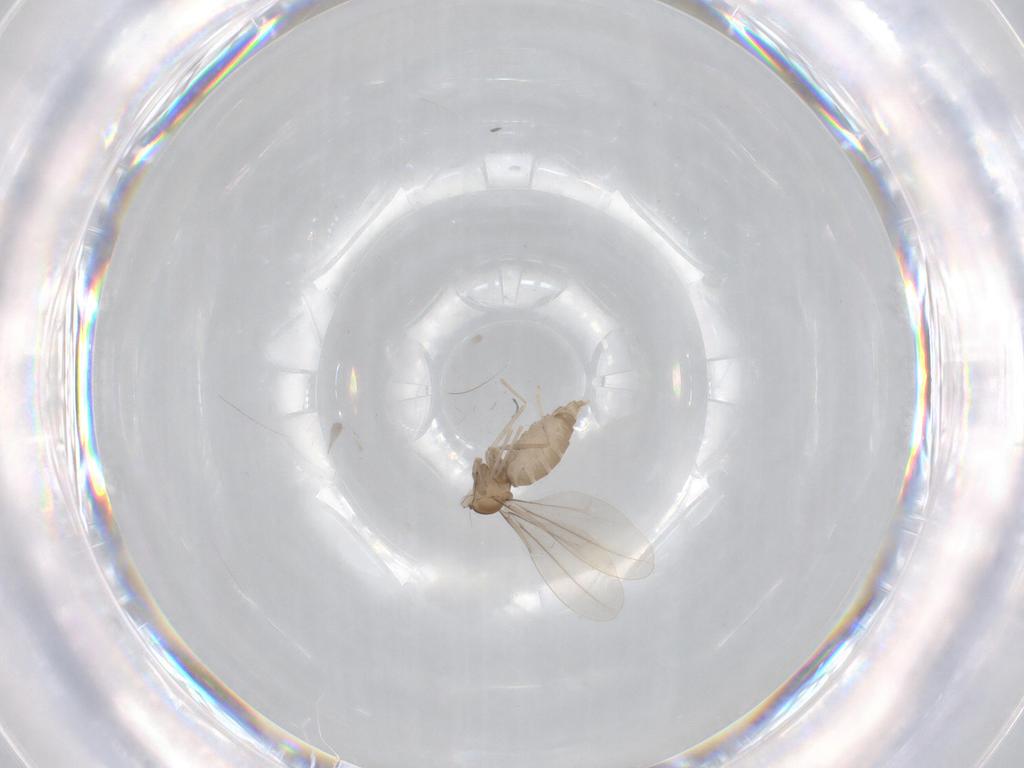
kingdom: Animalia
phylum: Arthropoda
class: Insecta
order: Diptera
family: Cecidomyiidae
